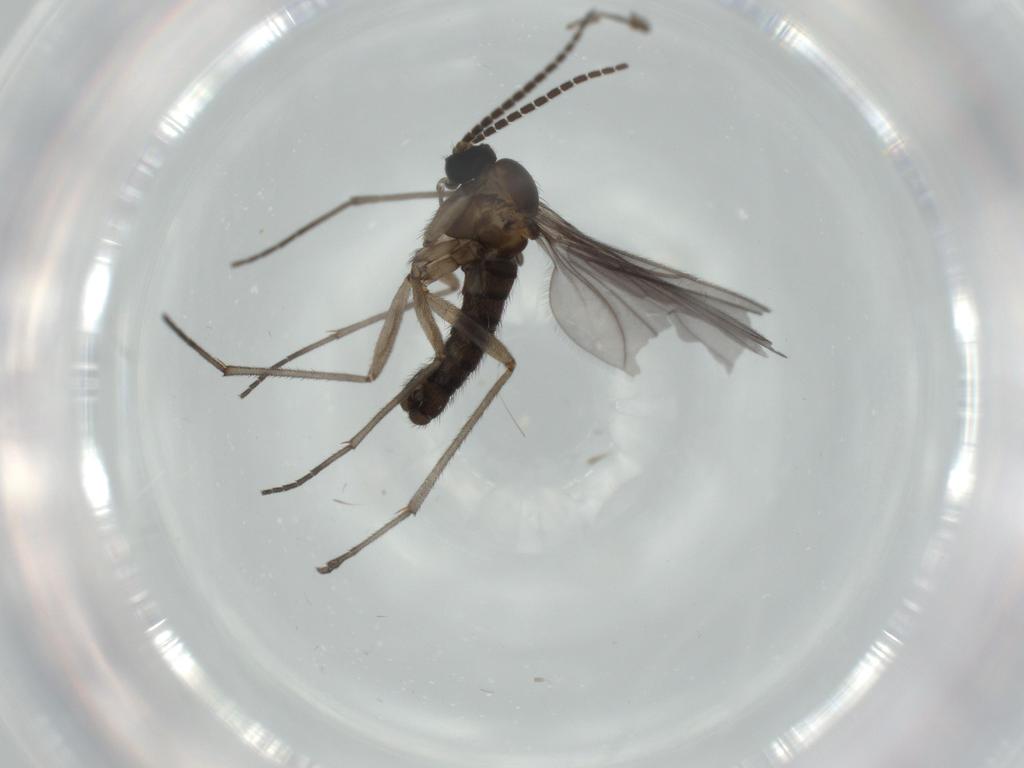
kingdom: Animalia
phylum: Arthropoda
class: Insecta
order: Diptera
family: Sciaridae
